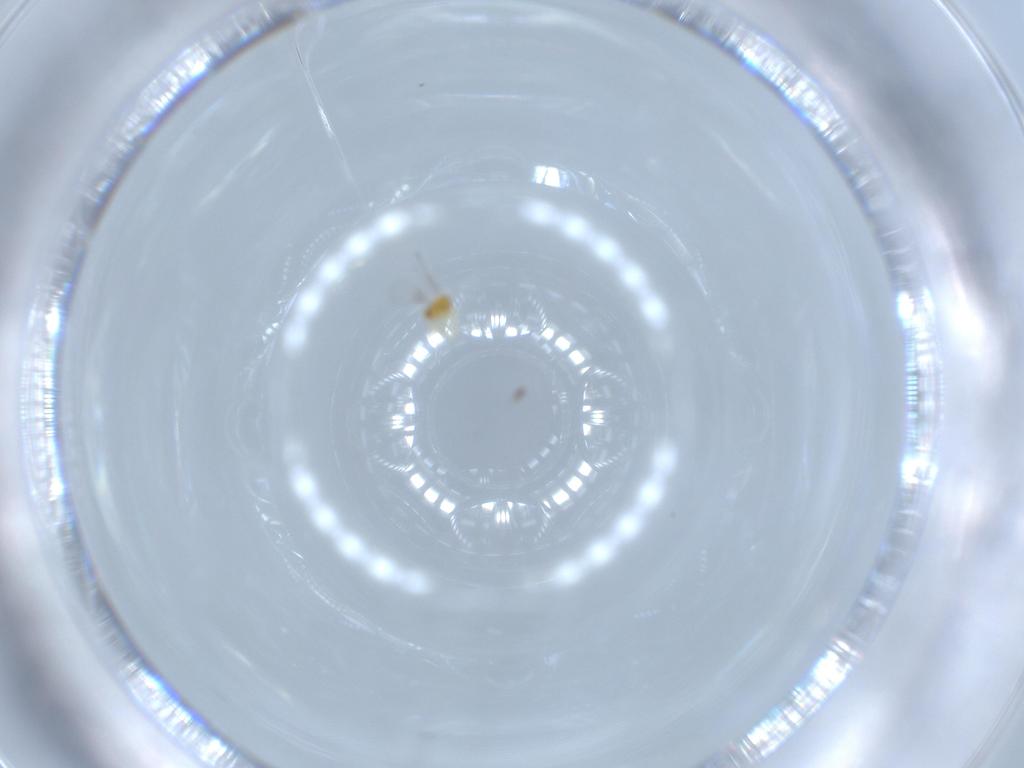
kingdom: Animalia
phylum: Arthropoda
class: Insecta
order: Hymenoptera
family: Trichogrammatidae
